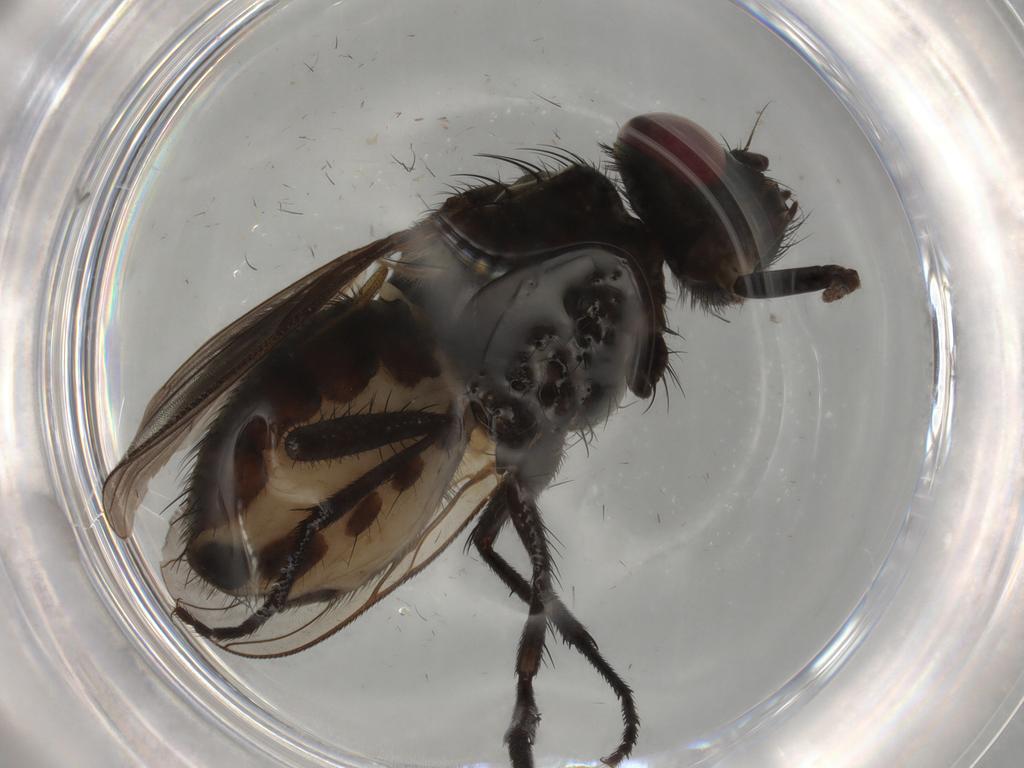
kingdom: Animalia
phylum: Arthropoda
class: Insecta
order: Diptera
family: Muscidae
